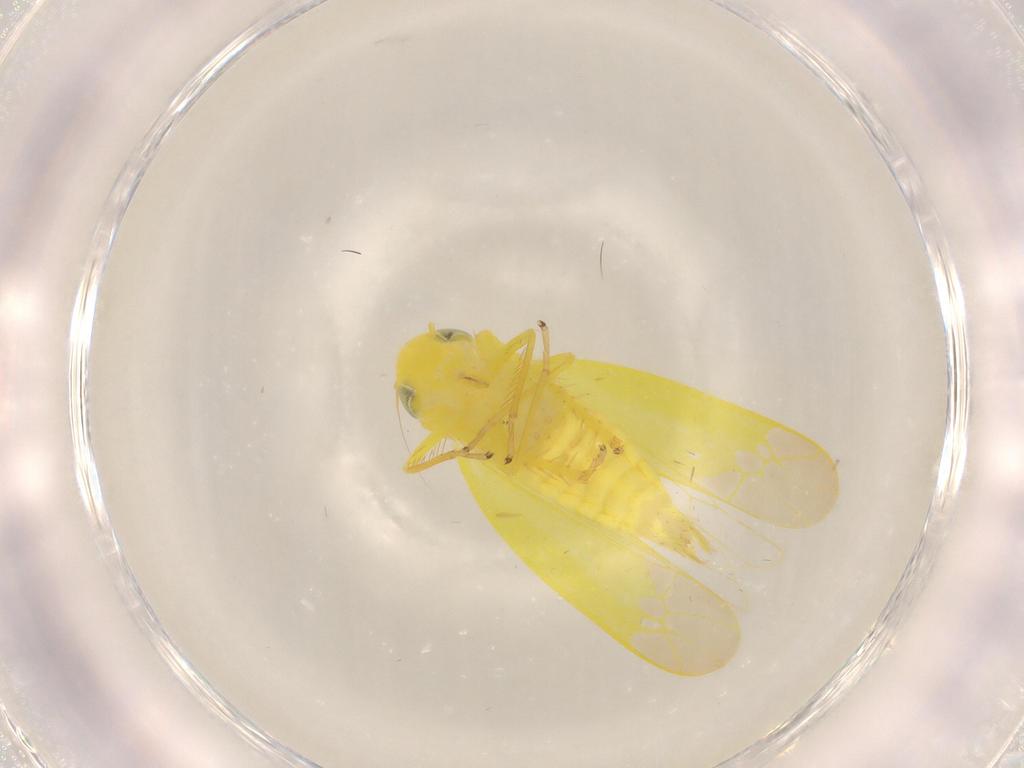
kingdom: Animalia
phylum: Arthropoda
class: Insecta
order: Hemiptera
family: Cicadellidae
